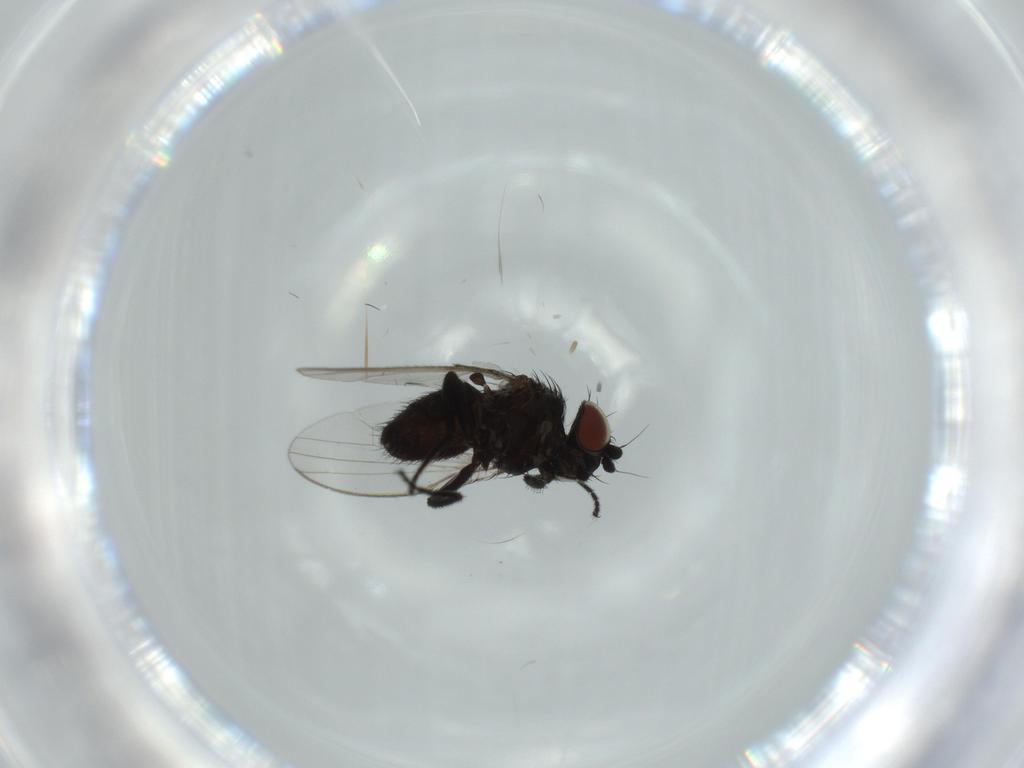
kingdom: Animalia
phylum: Arthropoda
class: Insecta
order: Diptera
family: Milichiidae
